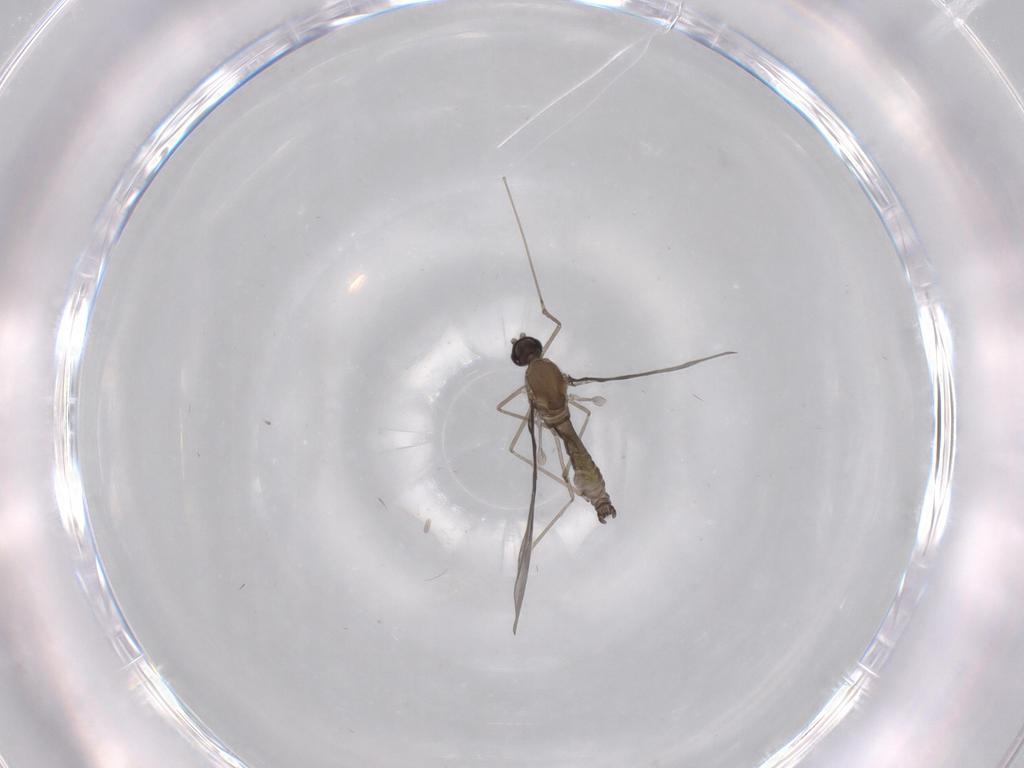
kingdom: Animalia
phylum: Arthropoda
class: Insecta
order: Diptera
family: Cecidomyiidae
